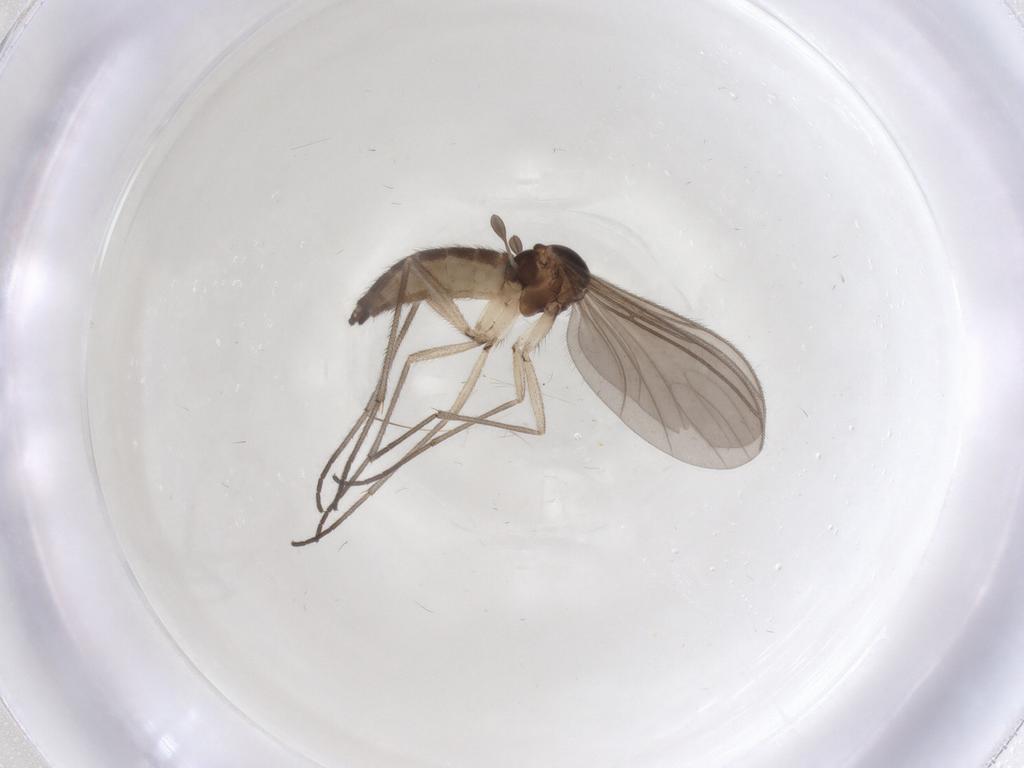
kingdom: Animalia
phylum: Arthropoda
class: Insecta
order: Diptera
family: Sciaridae
